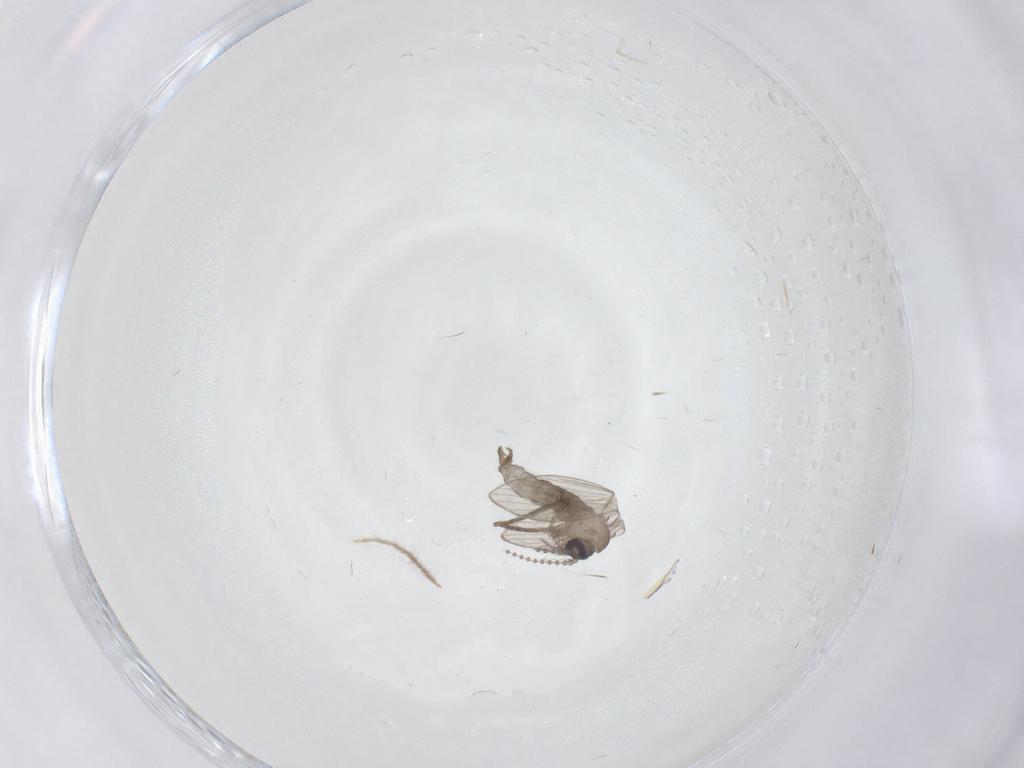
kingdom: Animalia
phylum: Arthropoda
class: Insecta
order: Diptera
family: Psychodidae
